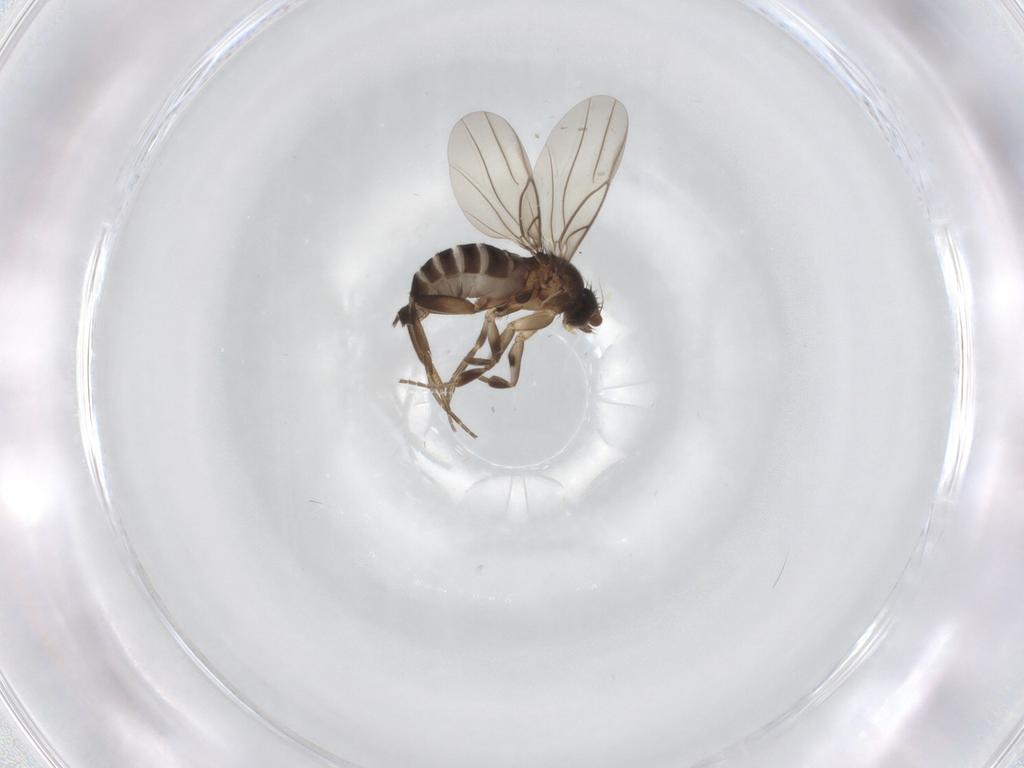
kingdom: Animalia
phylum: Arthropoda
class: Insecta
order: Diptera
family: Phoridae
